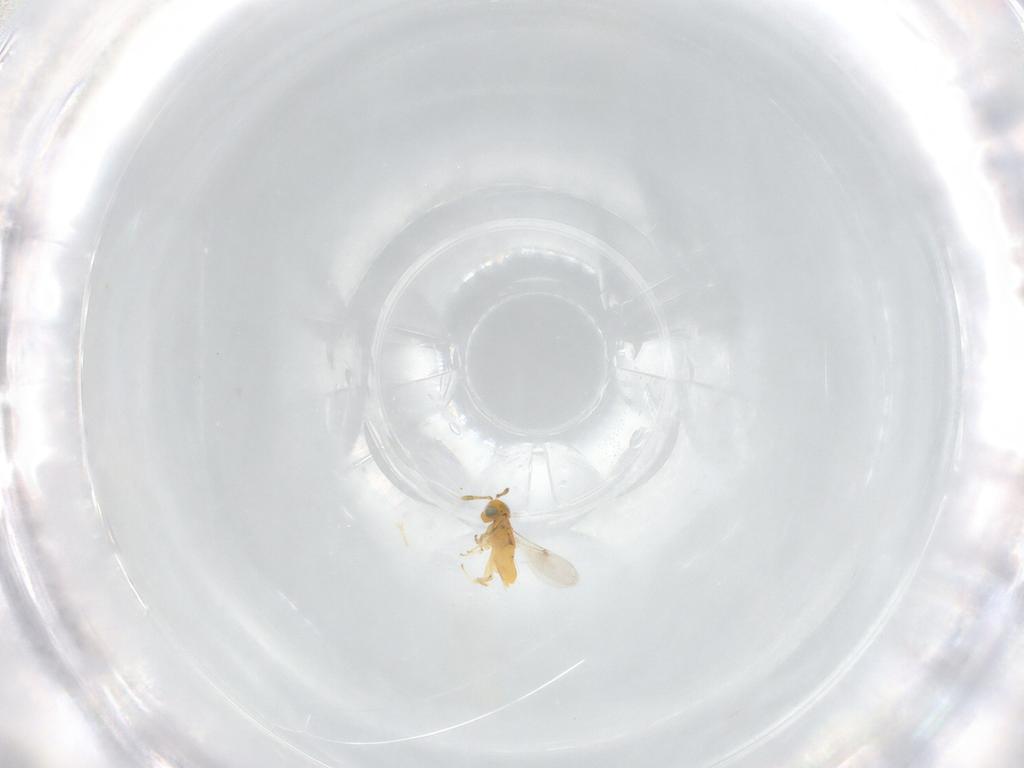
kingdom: Animalia
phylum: Arthropoda
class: Insecta
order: Hymenoptera
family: Encyrtidae
